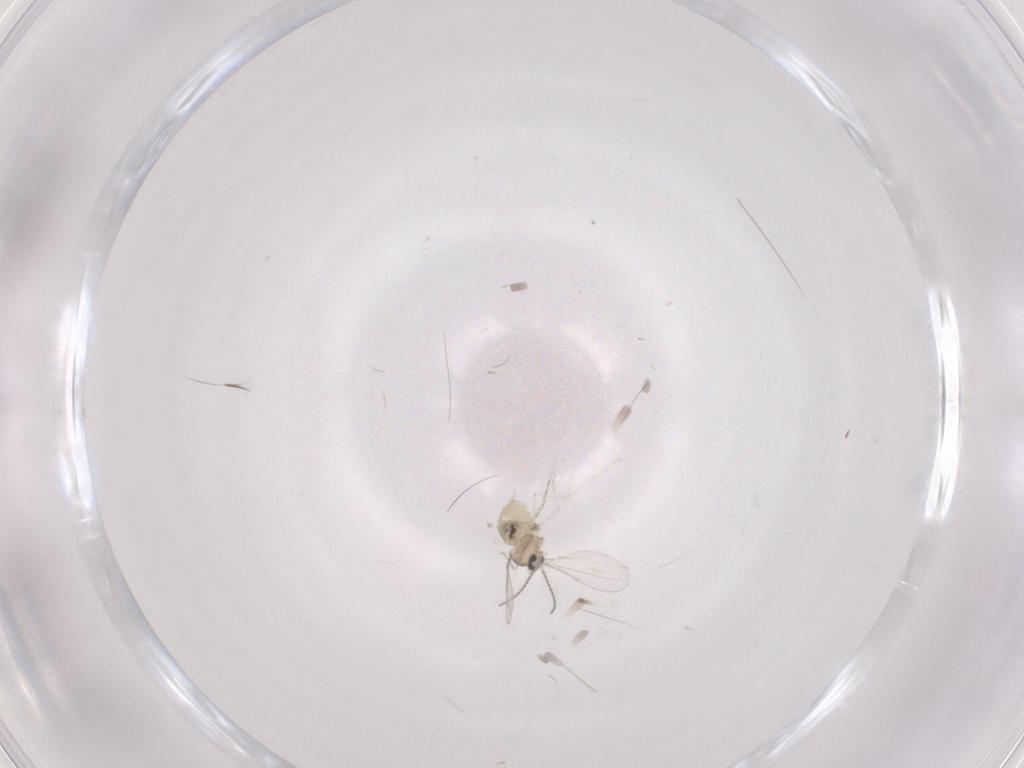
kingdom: Animalia
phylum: Arthropoda
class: Insecta
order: Diptera
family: Cecidomyiidae
